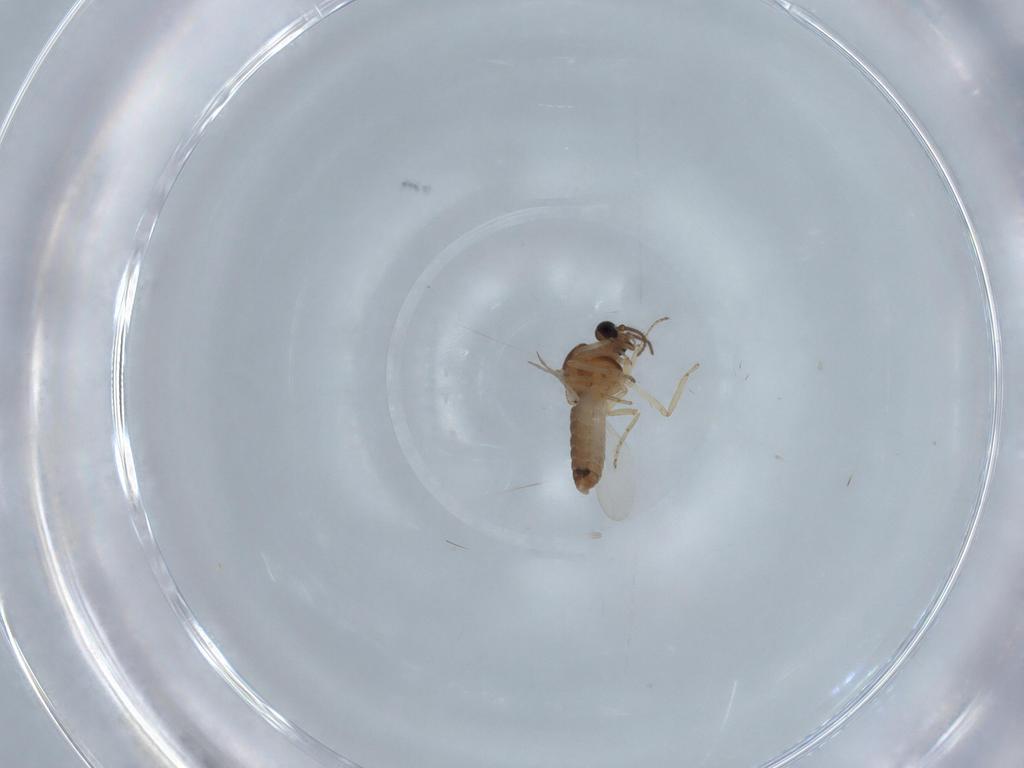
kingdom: Animalia
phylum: Arthropoda
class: Insecta
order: Diptera
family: Ceratopogonidae
